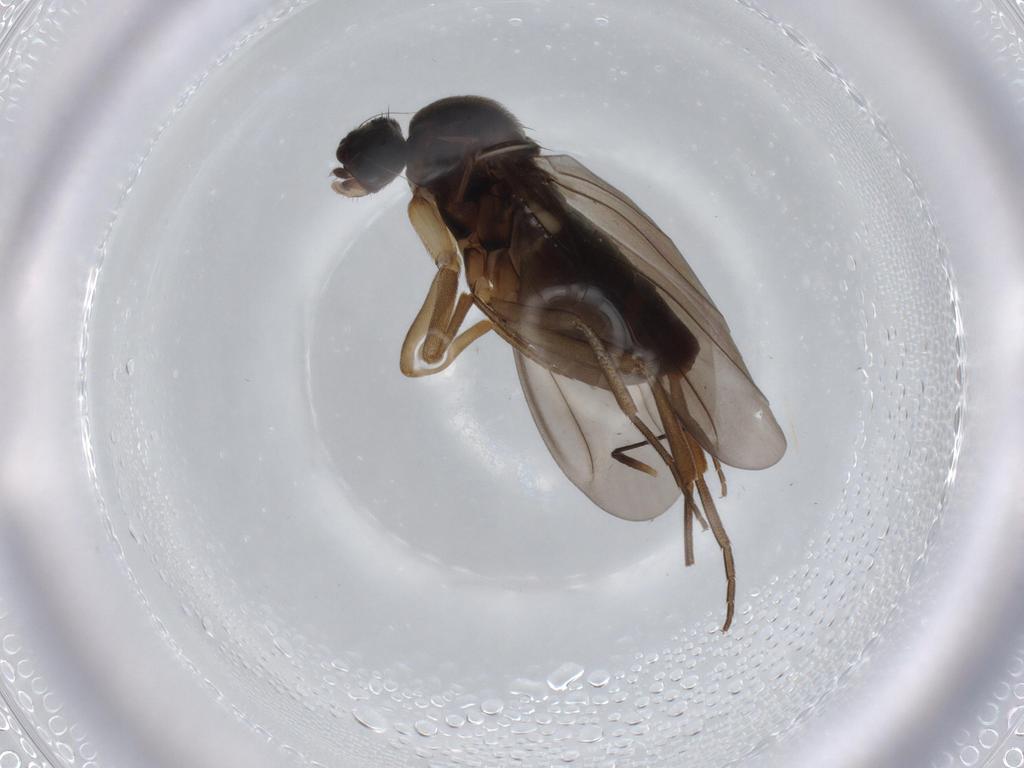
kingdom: Animalia
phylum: Arthropoda
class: Insecta
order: Diptera
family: Phoridae
